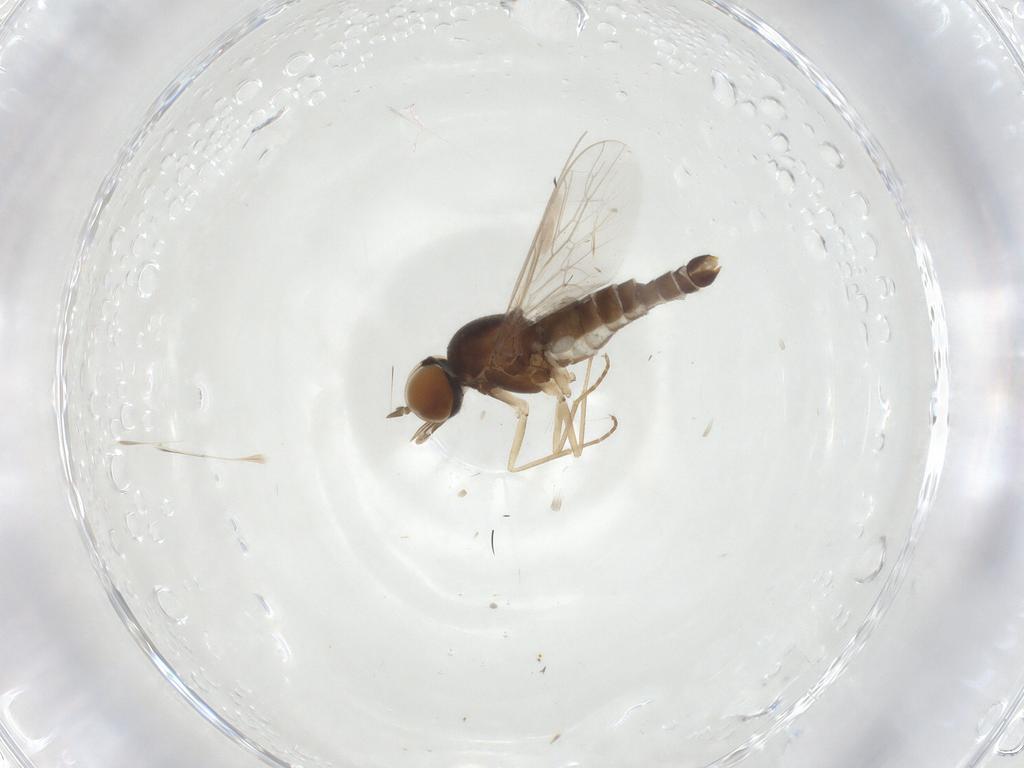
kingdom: Animalia
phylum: Arthropoda
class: Insecta
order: Diptera
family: Scenopinidae
